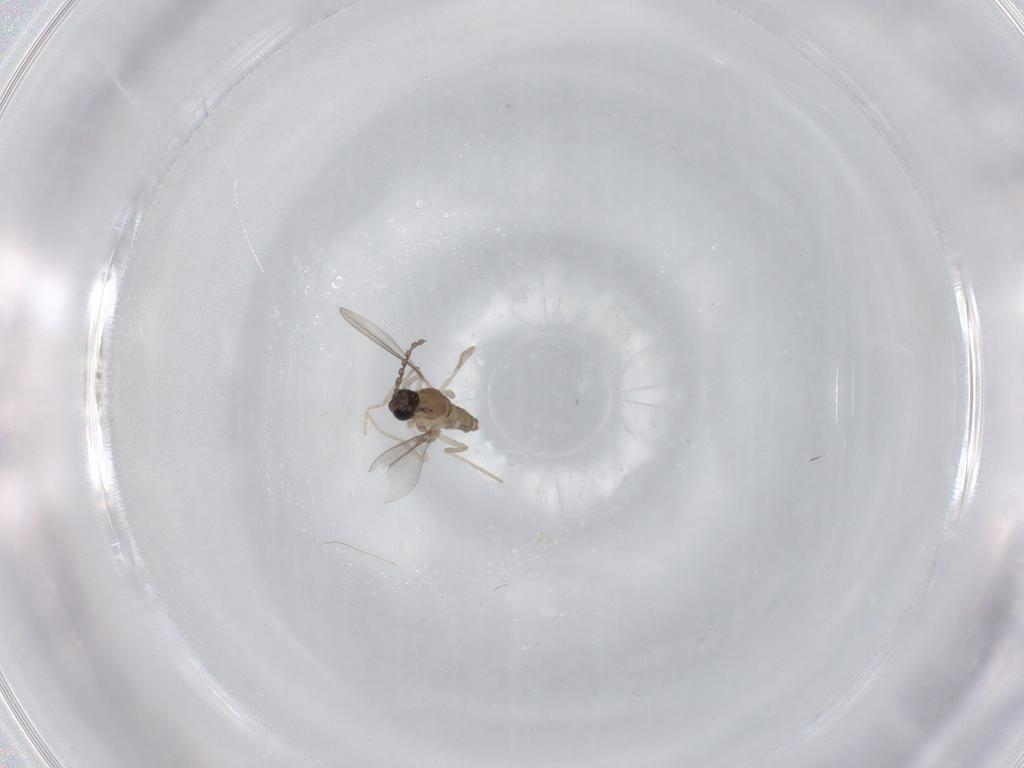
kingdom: Animalia
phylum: Arthropoda
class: Insecta
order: Diptera
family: Cecidomyiidae
